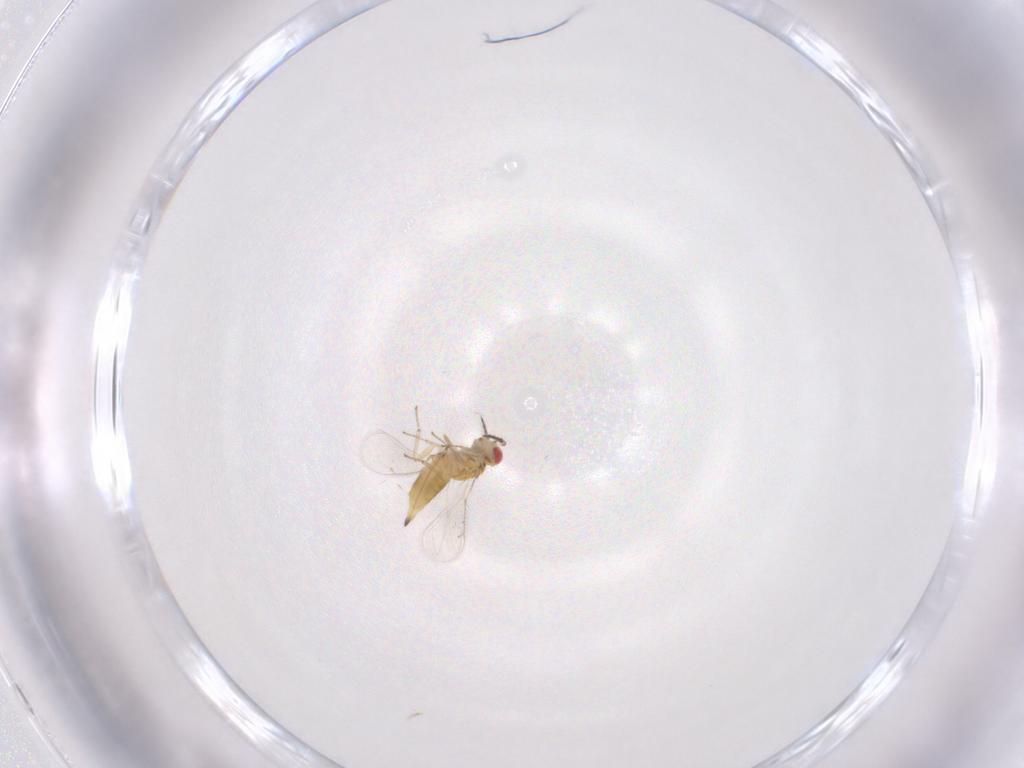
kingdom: Animalia
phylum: Arthropoda
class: Insecta
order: Hymenoptera
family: Eulophidae
